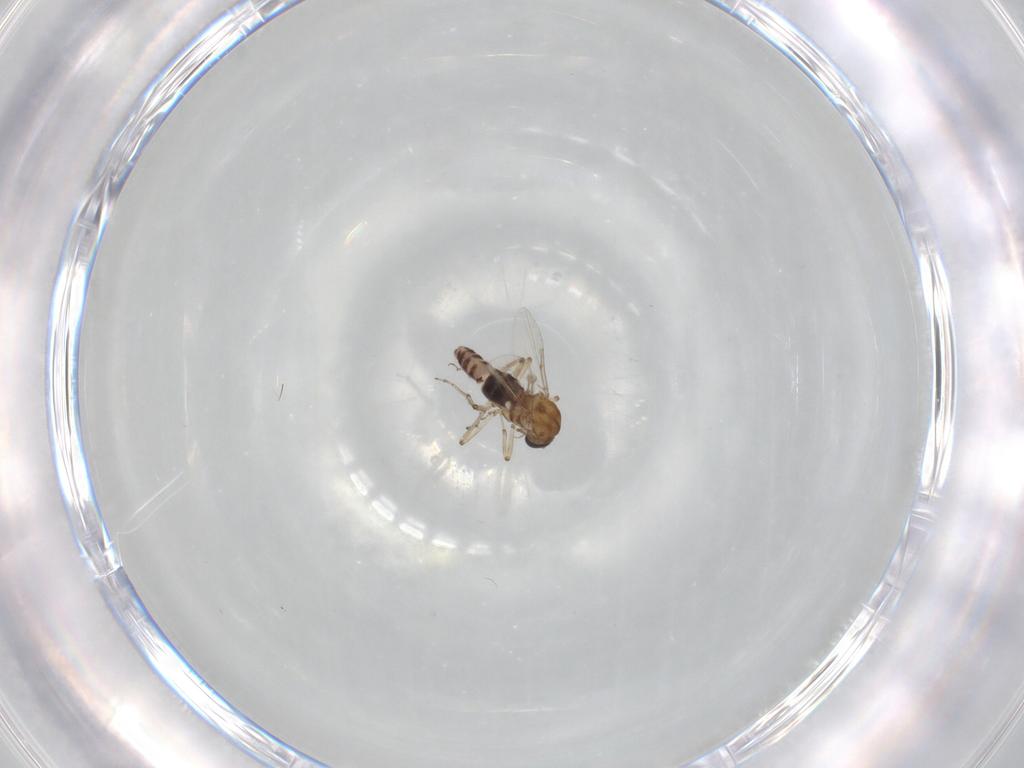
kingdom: Animalia
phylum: Arthropoda
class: Insecta
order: Diptera
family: Ceratopogonidae
